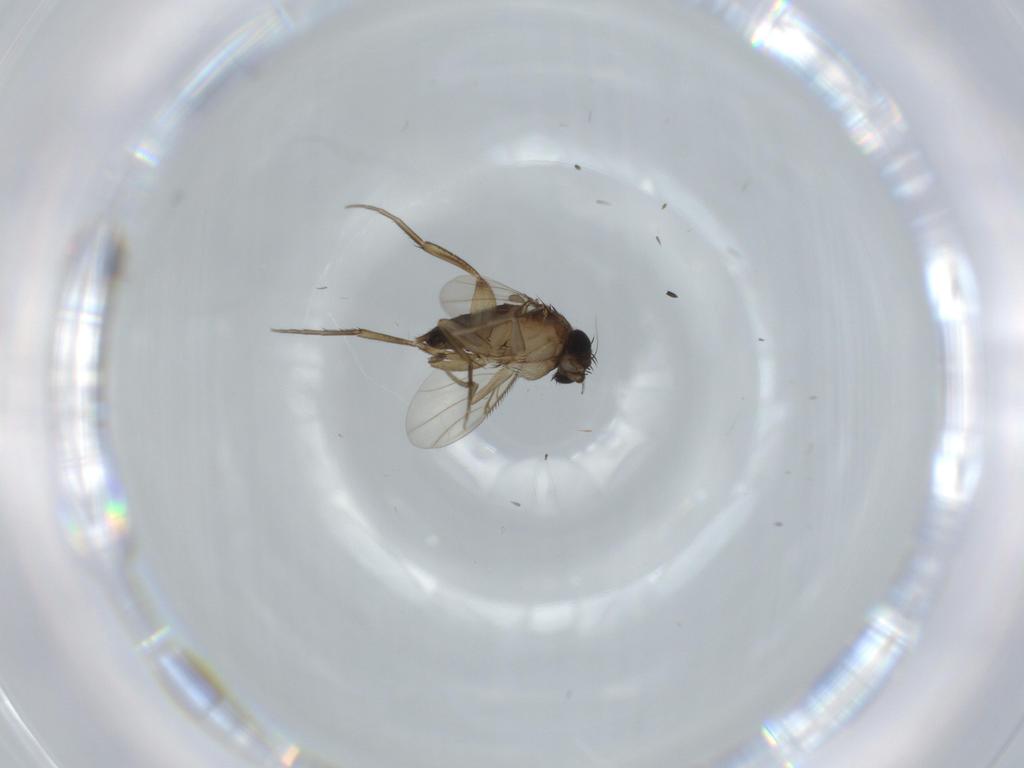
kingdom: Animalia
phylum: Arthropoda
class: Insecta
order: Diptera
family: Phoridae
